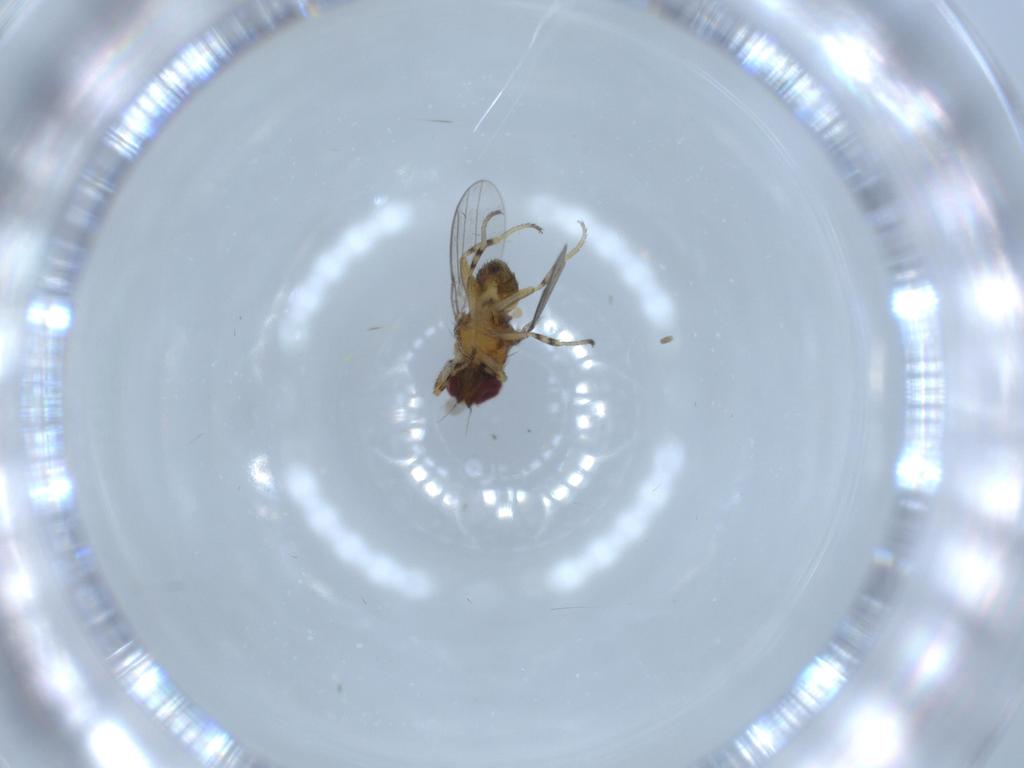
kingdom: Animalia
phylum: Arthropoda
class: Insecta
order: Diptera
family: Chloropidae
